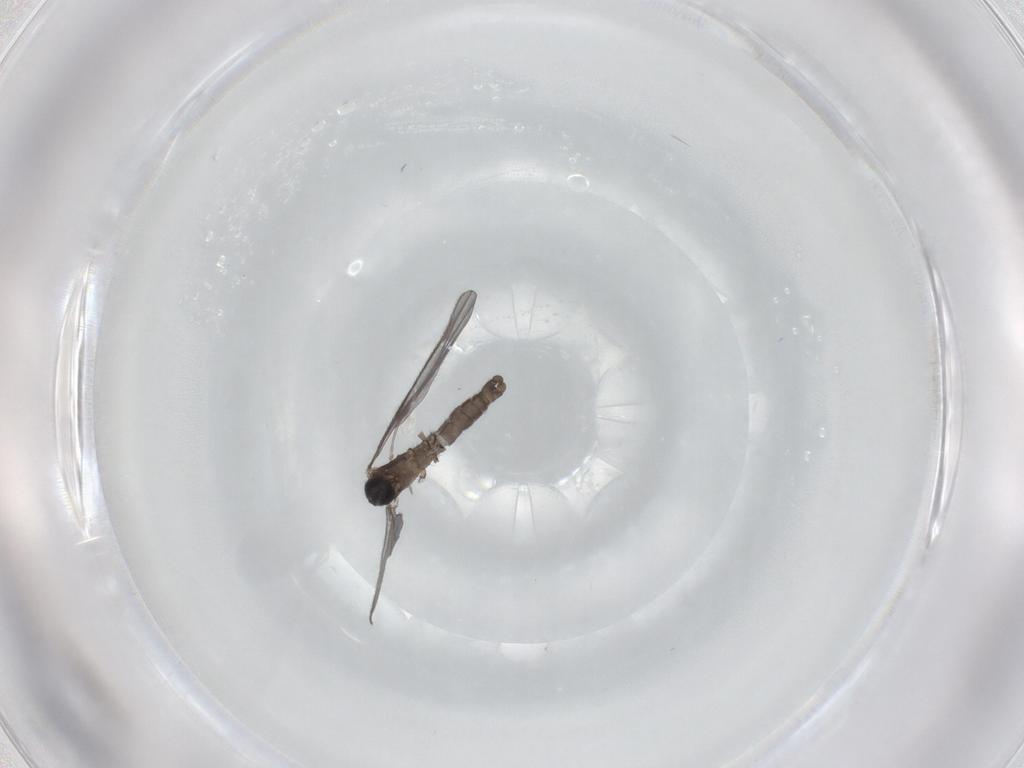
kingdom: Animalia
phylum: Arthropoda
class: Insecta
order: Diptera
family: Sciaridae
